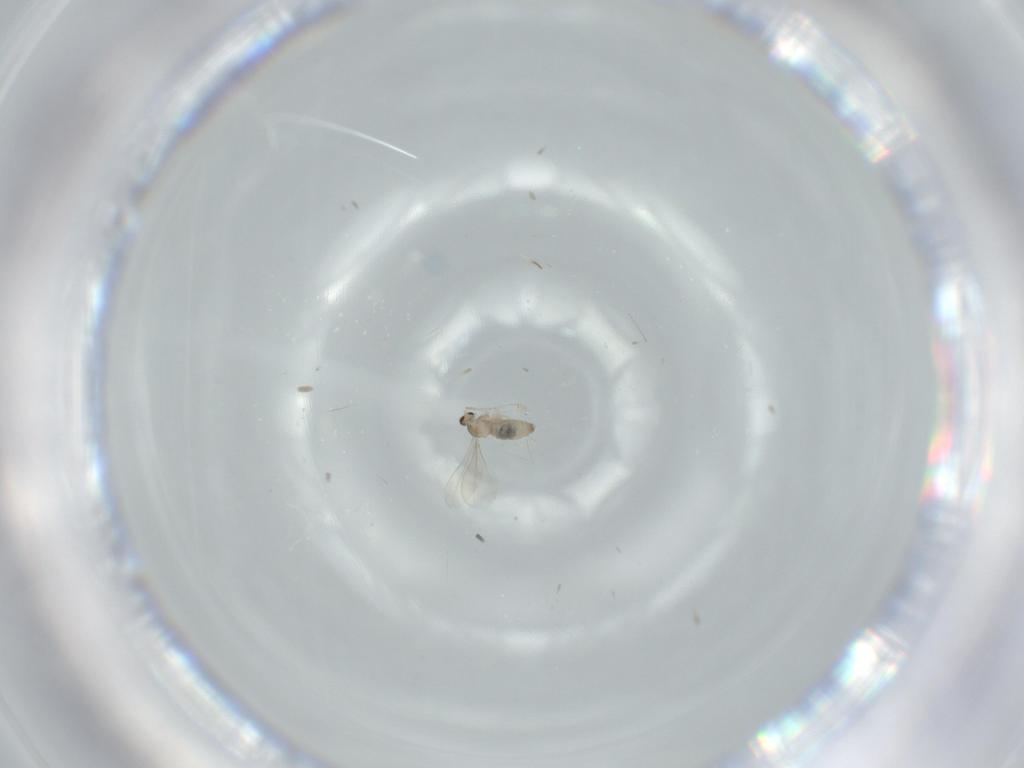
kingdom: Animalia
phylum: Arthropoda
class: Insecta
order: Diptera
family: Cecidomyiidae
